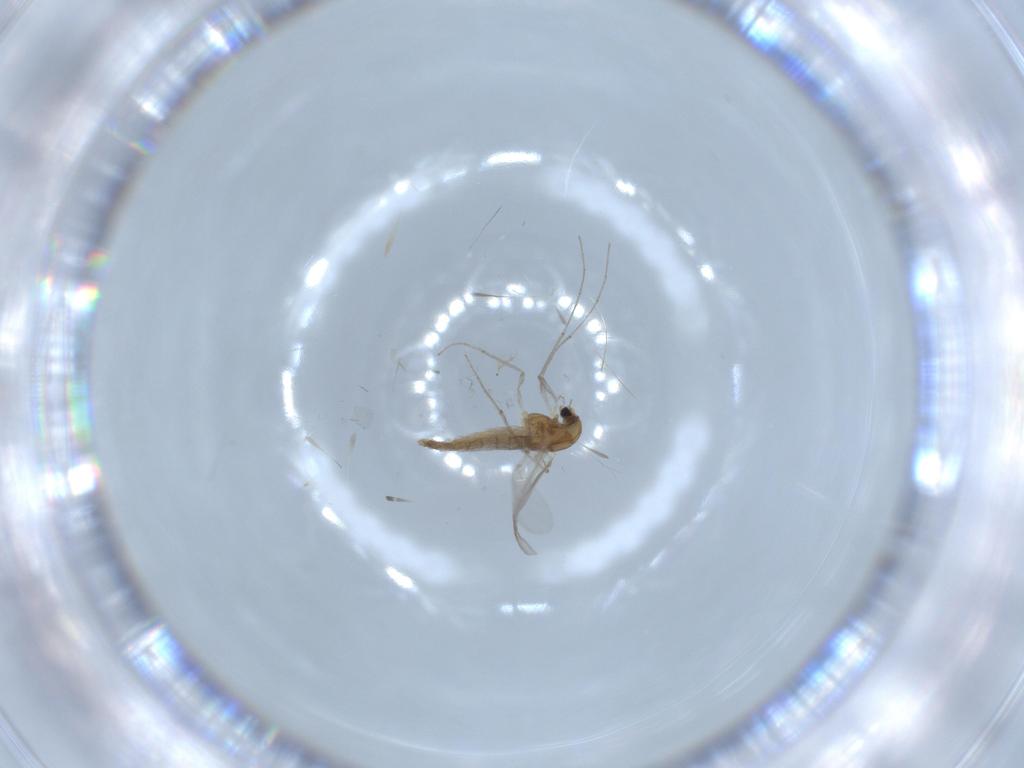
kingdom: Animalia
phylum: Arthropoda
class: Insecta
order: Diptera
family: Chironomidae
